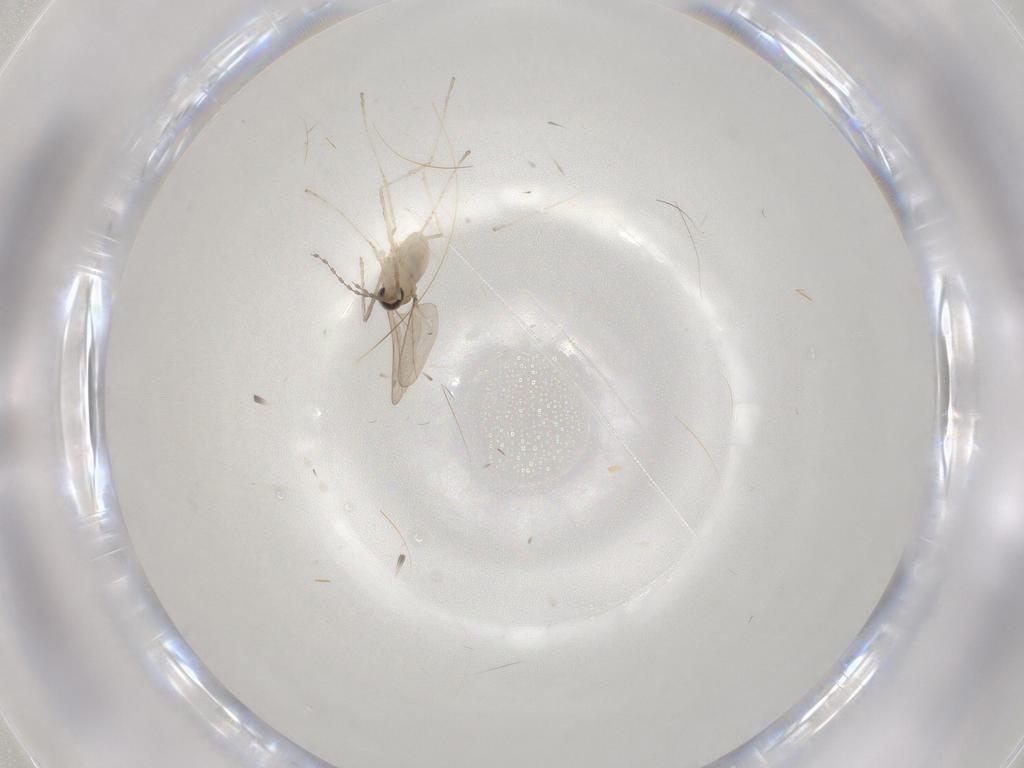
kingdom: Animalia
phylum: Arthropoda
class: Insecta
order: Diptera
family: Cecidomyiidae
